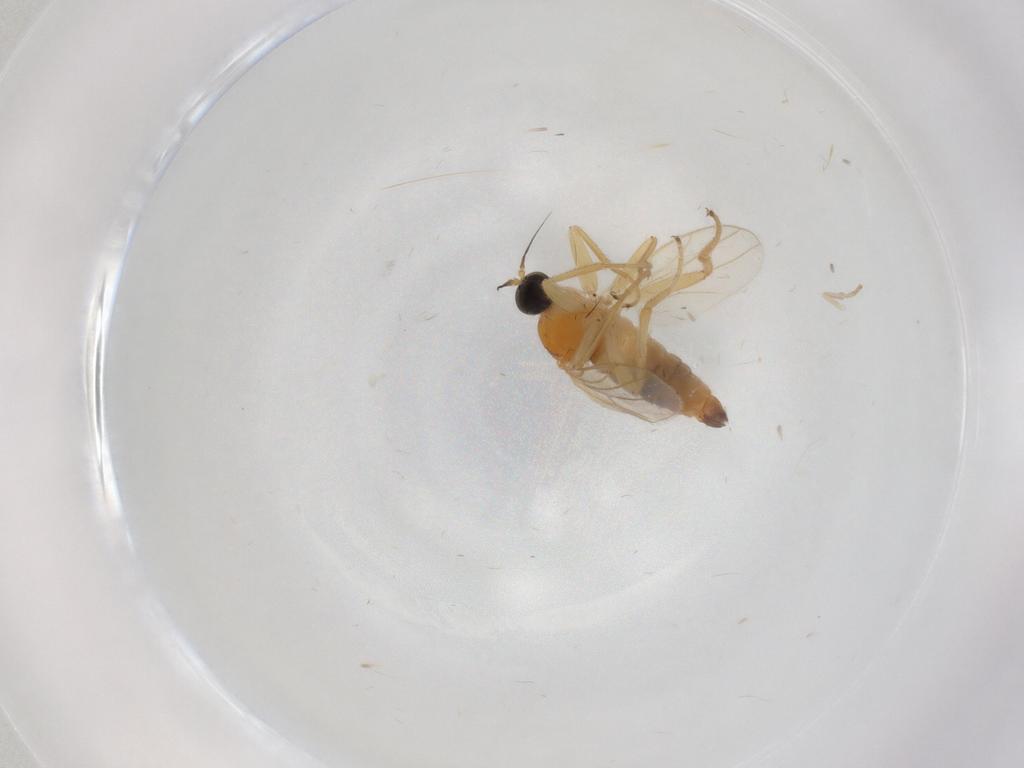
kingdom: Animalia
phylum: Arthropoda
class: Insecta
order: Diptera
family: Hybotidae
